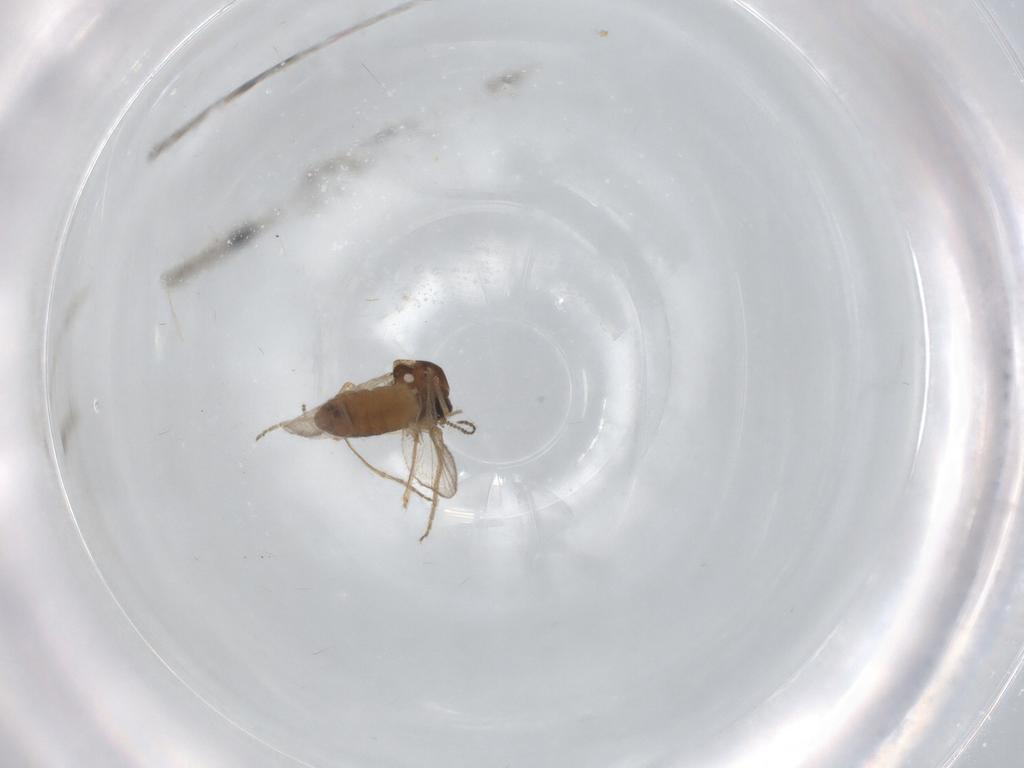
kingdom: Animalia
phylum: Arthropoda
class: Insecta
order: Diptera
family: Ceratopogonidae
